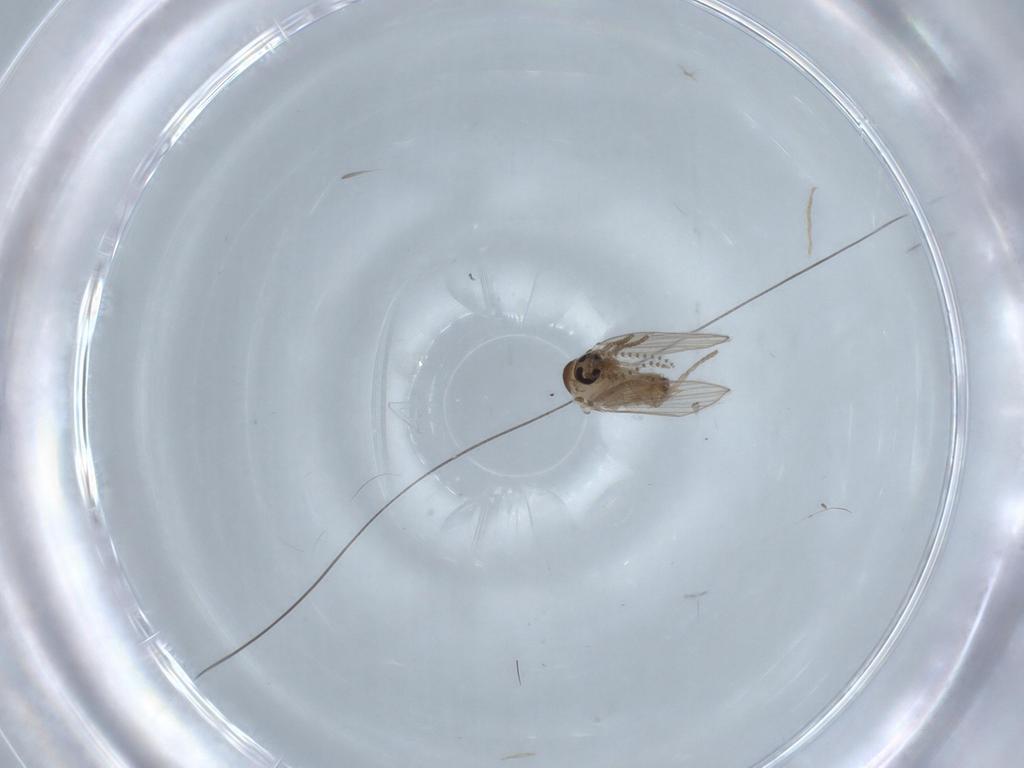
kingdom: Animalia
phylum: Arthropoda
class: Insecta
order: Diptera
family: Psychodidae
